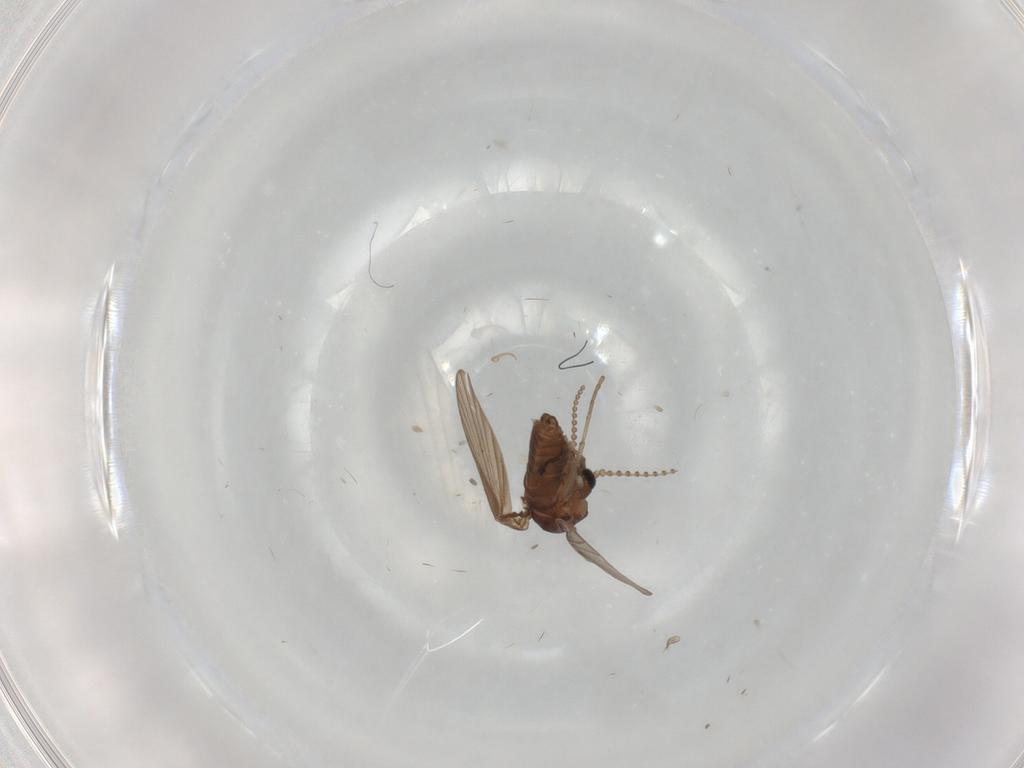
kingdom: Animalia
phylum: Arthropoda
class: Insecta
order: Diptera
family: Psychodidae
